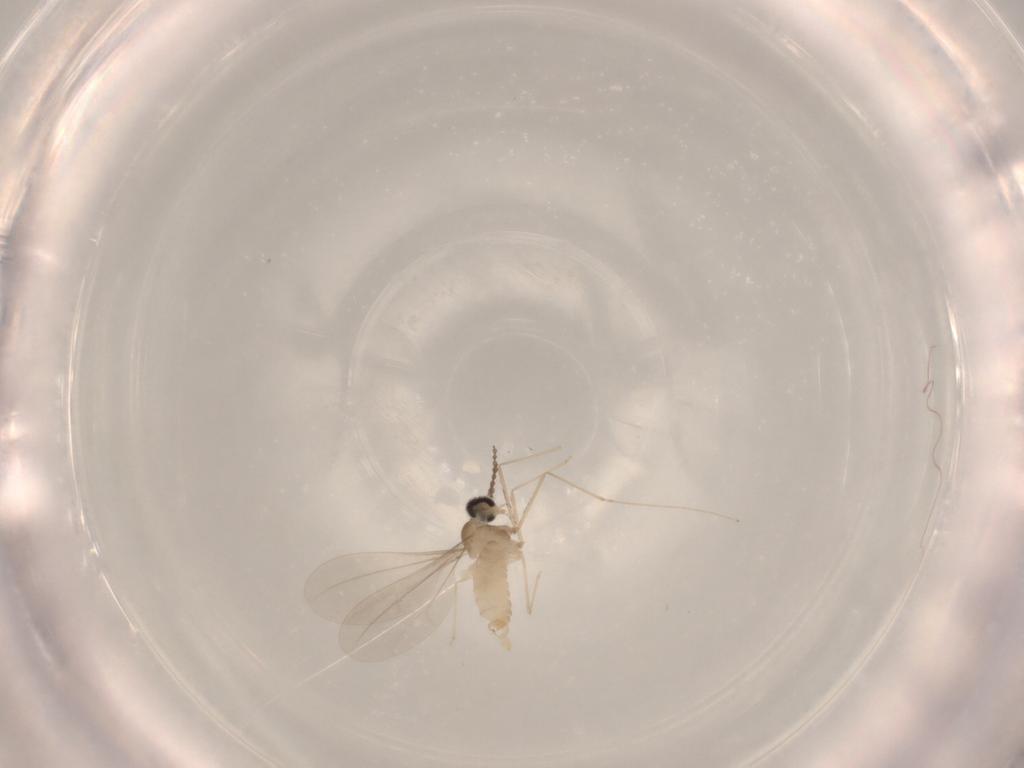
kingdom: Animalia
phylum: Arthropoda
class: Insecta
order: Diptera
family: Cecidomyiidae
